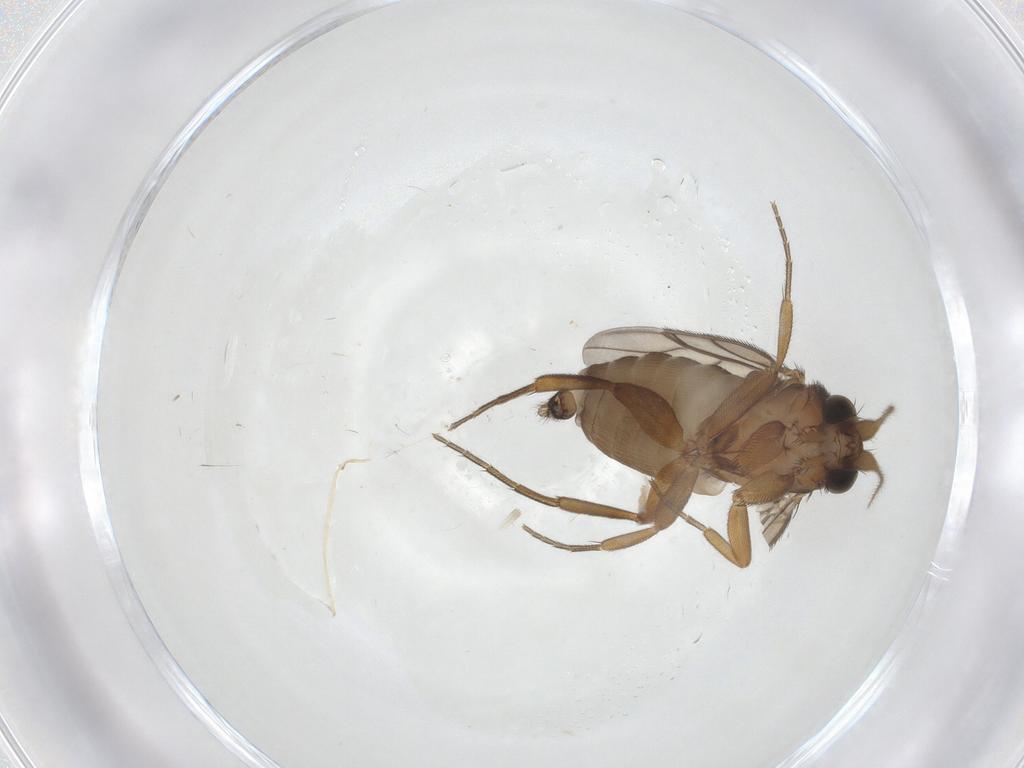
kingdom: Animalia
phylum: Arthropoda
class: Insecta
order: Diptera
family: Phoridae
